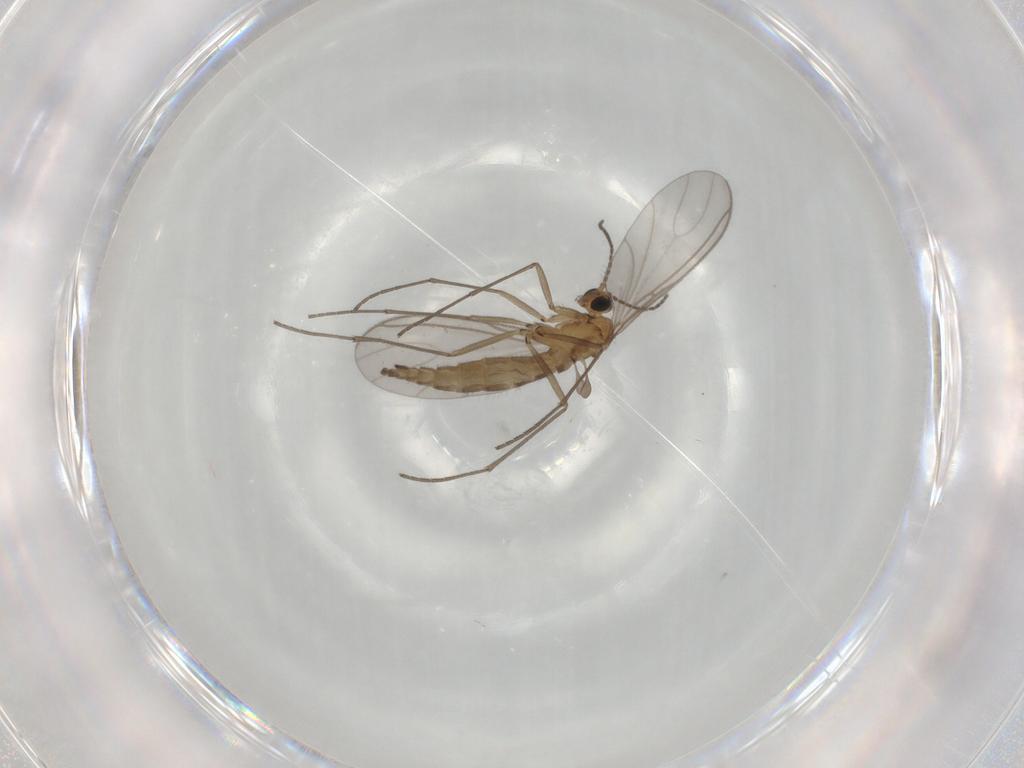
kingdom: Animalia
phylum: Arthropoda
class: Insecta
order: Diptera
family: Sciaridae
